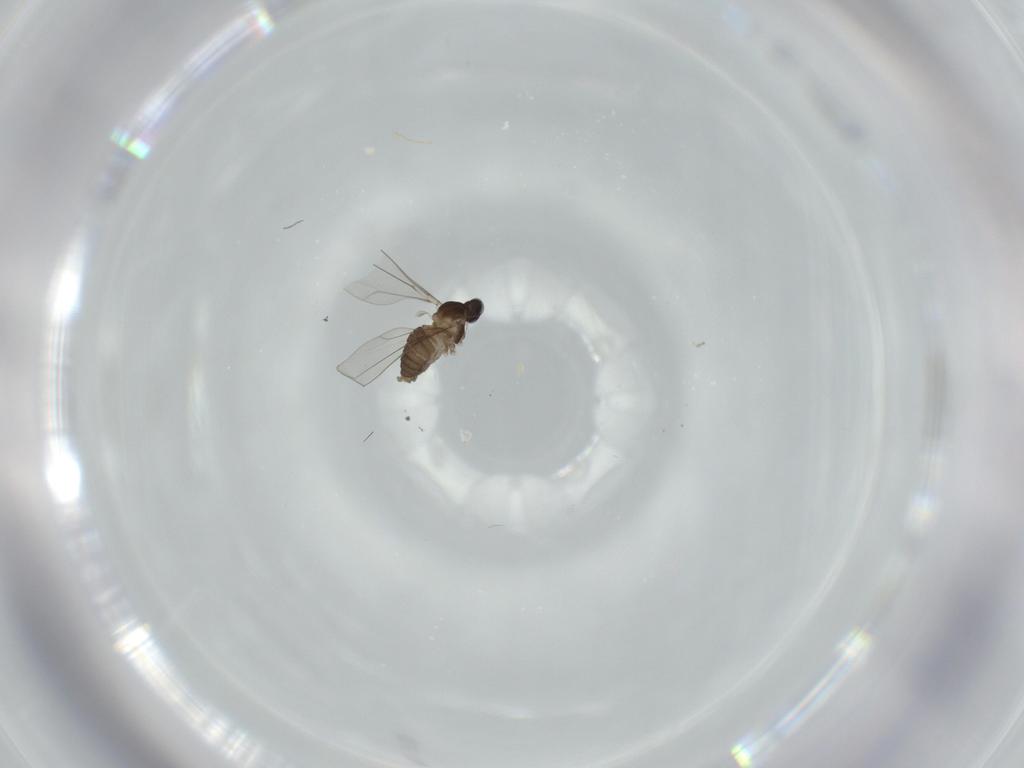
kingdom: Animalia
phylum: Arthropoda
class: Insecta
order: Diptera
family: Cecidomyiidae
